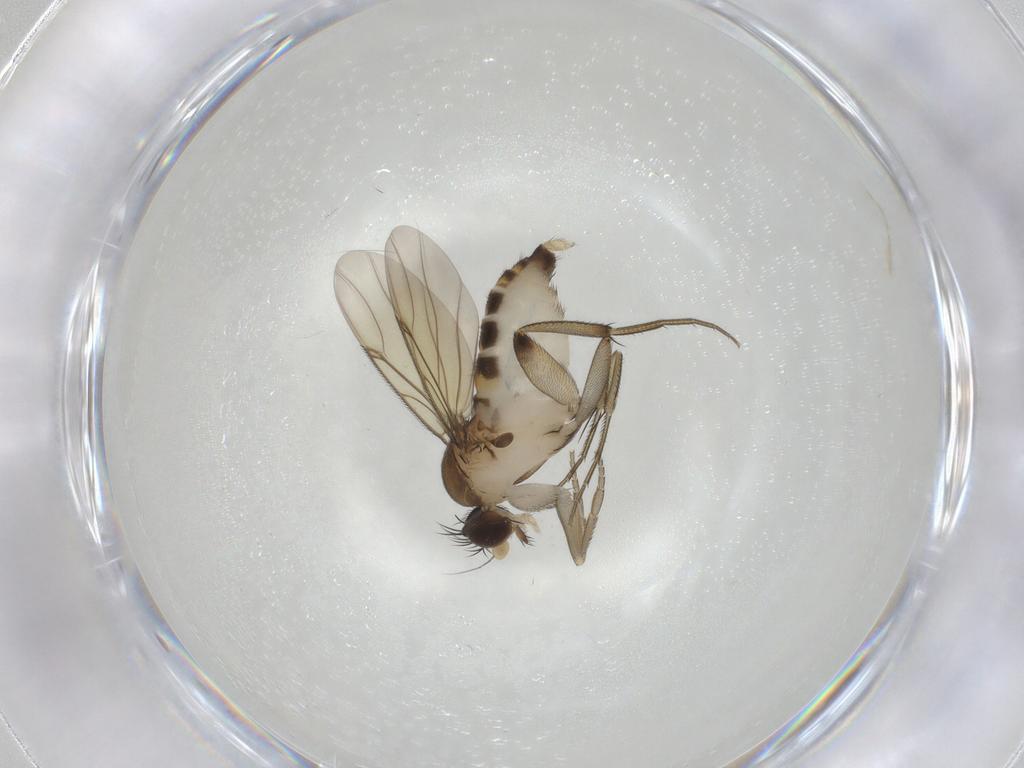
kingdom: Animalia
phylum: Arthropoda
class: Insecta
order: Diptera
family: Phoridae
